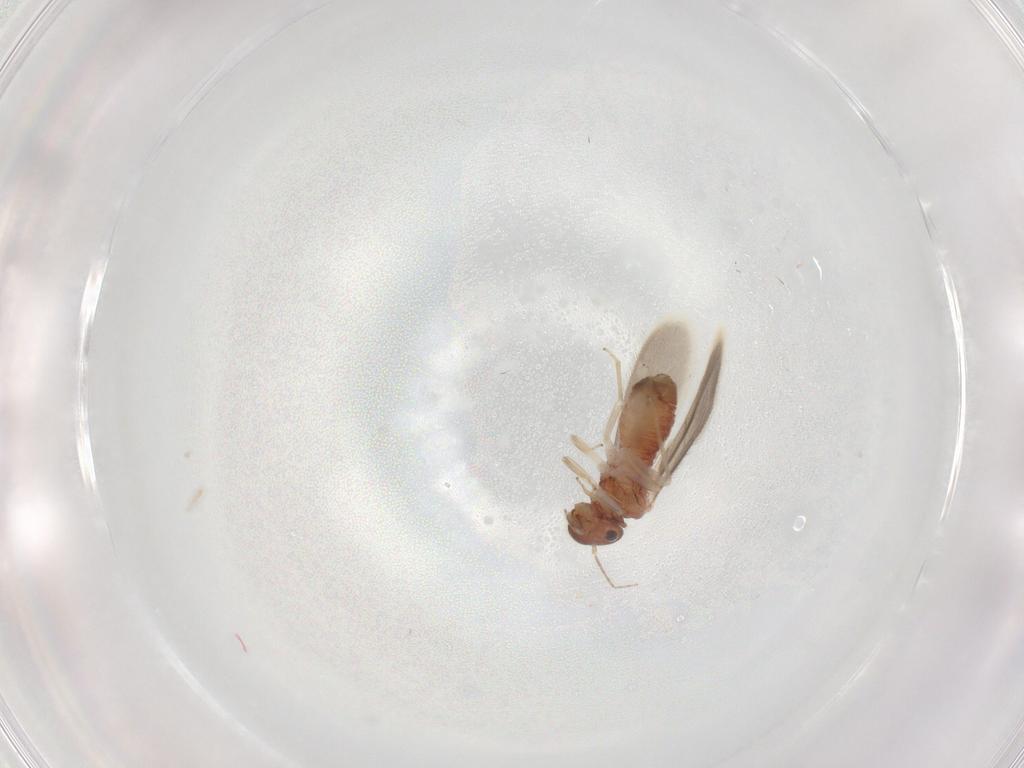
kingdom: Animalia
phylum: Arthropoda
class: Insecta
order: Psocodea
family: Archipsocidae
